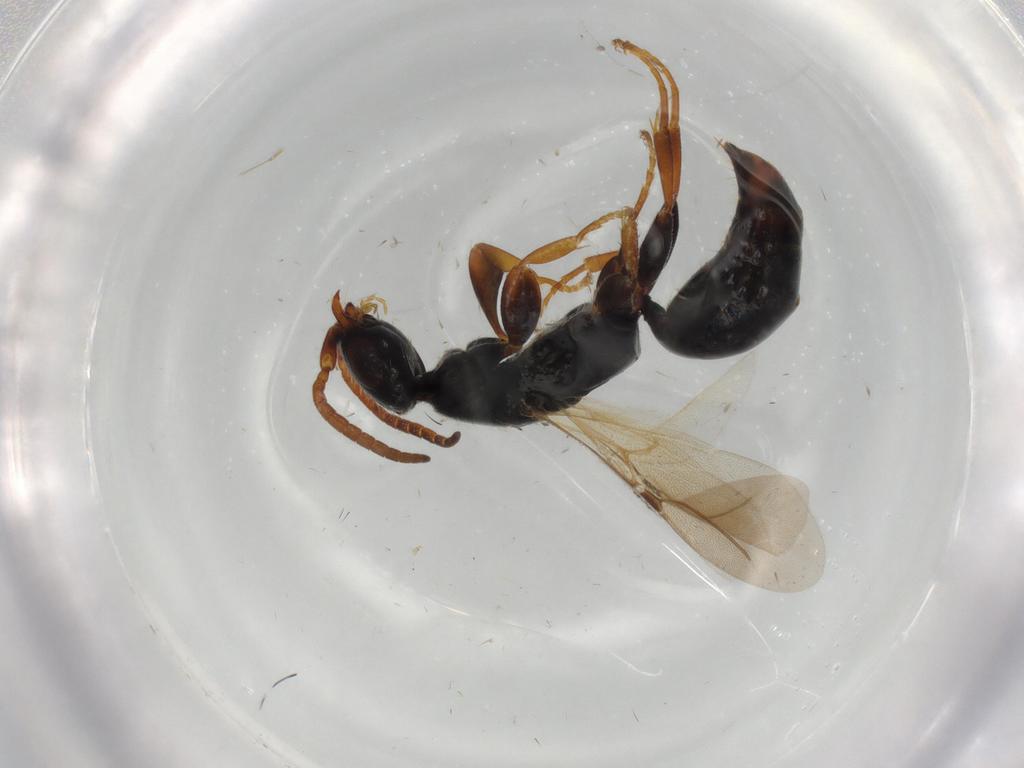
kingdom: Animalia
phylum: Arthropoda
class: Insecta
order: Hymenoptera
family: Bethylidae
